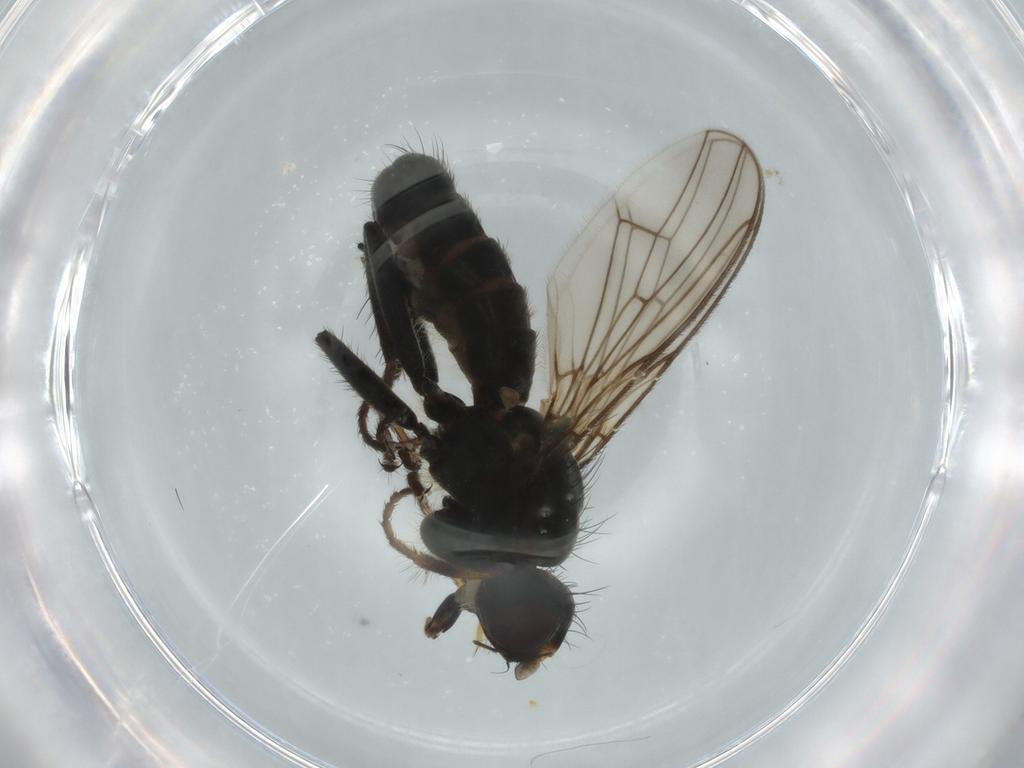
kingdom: Animalia
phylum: Arthropoda
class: Insecta
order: Diptera
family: Scathophagidae
